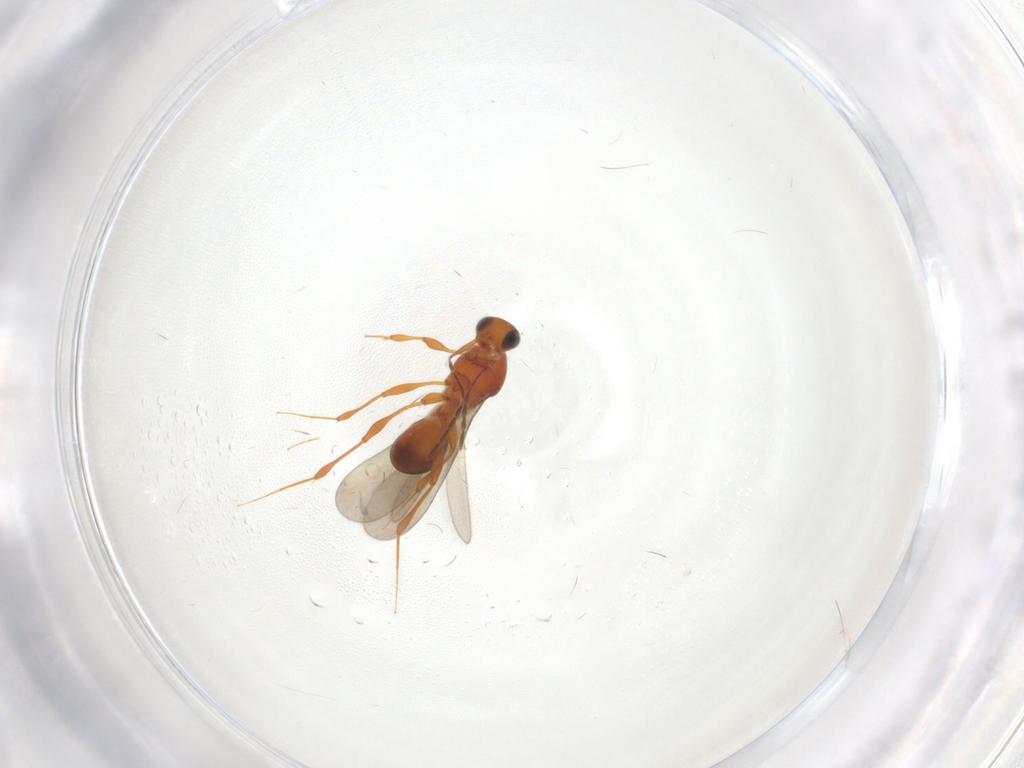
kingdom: Animalia
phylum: Arthropoda
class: Insecta
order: Hymenoptera
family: Platygastridae
